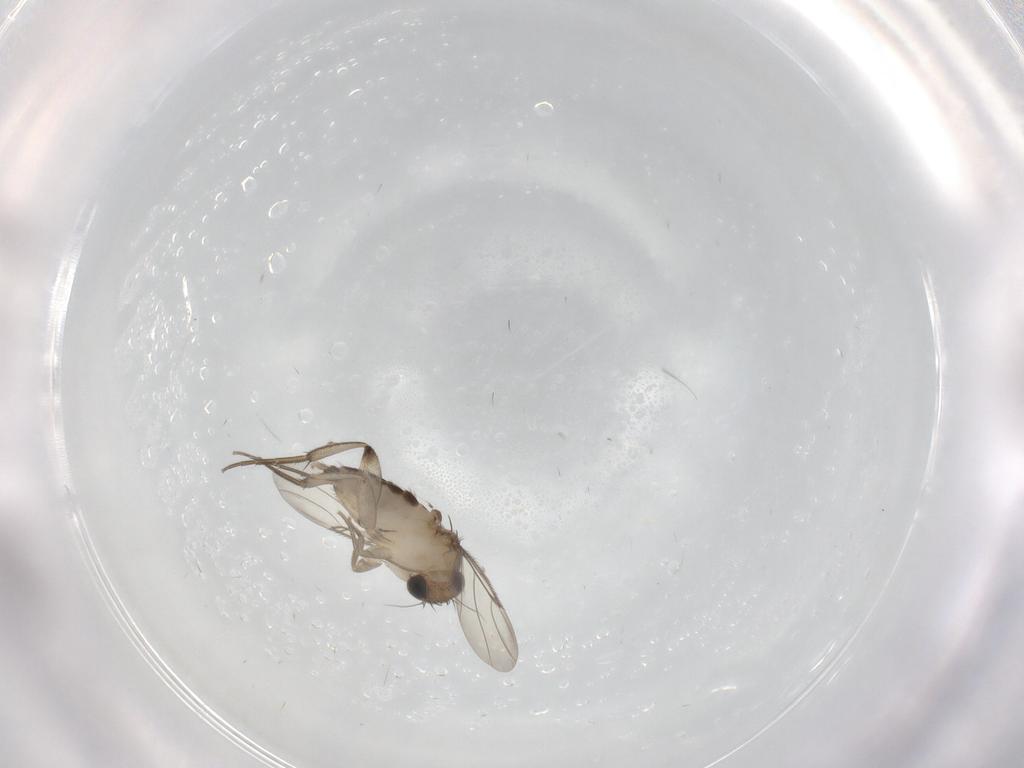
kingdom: Animalia
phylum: Arthropoda
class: Insecta
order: Diptera
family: Phoridae
